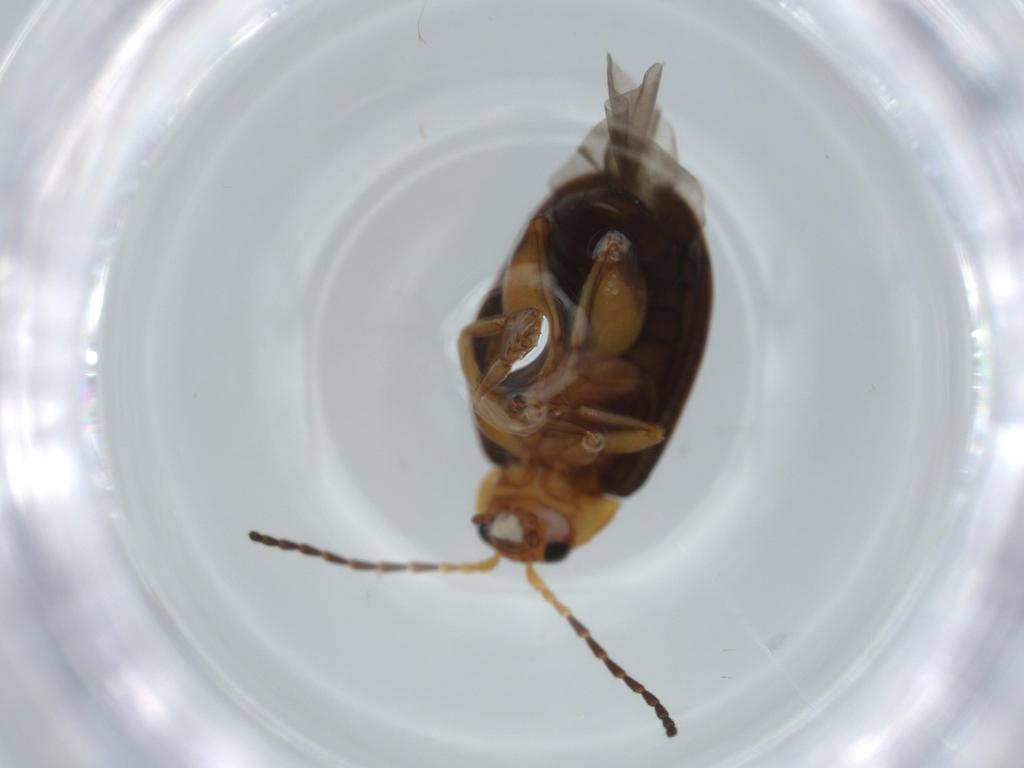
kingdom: Animalia
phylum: Arthropoda
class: Insecta
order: Coleoptera
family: Chrysomelidae
